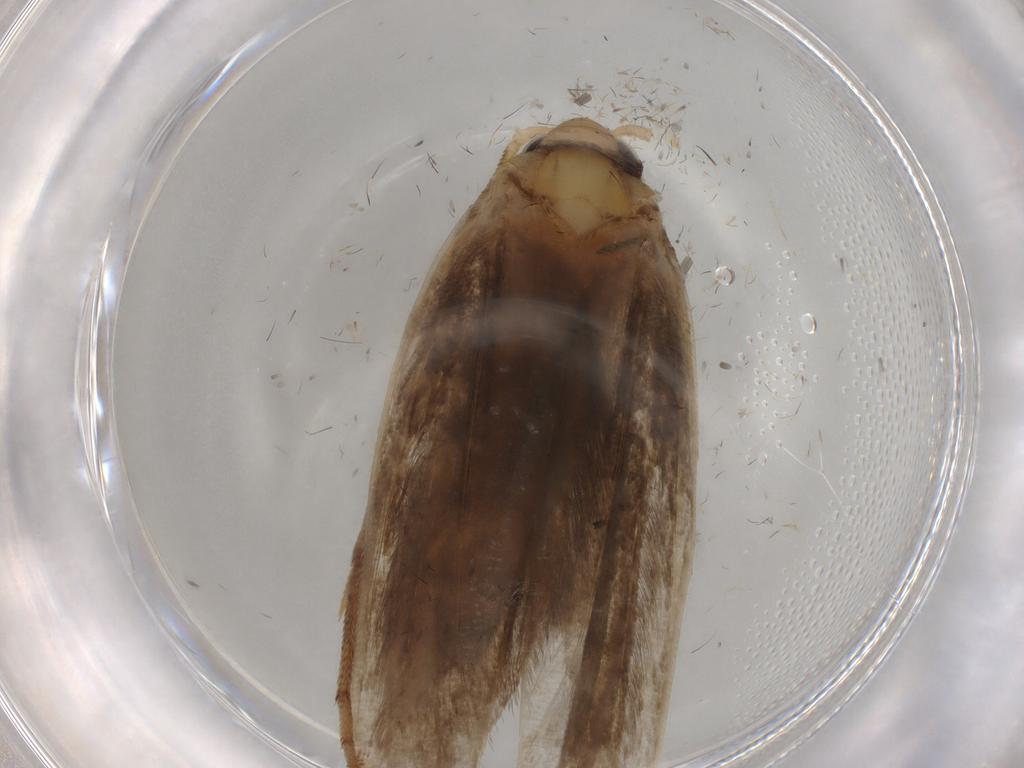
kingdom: Animalia
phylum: Arthropoda
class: Insecta
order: Lepidoptera
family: Yponomeutidae
